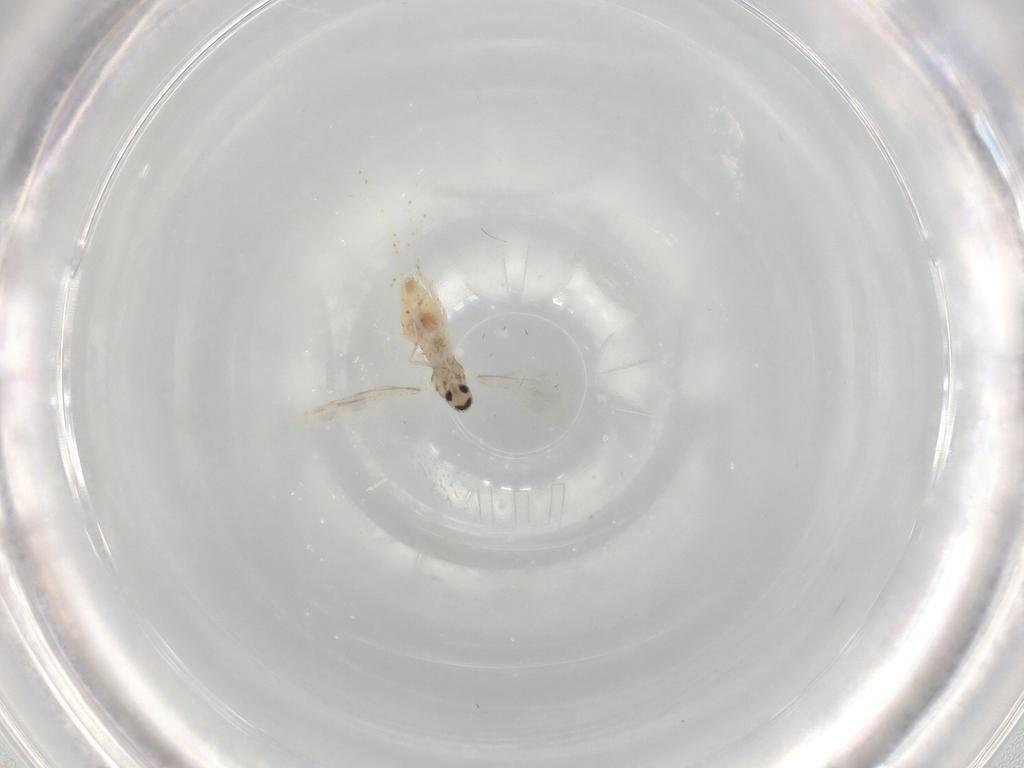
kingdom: Animalia
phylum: Arthropoda
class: Insecta
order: Diptera
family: Cecidomyiidae
